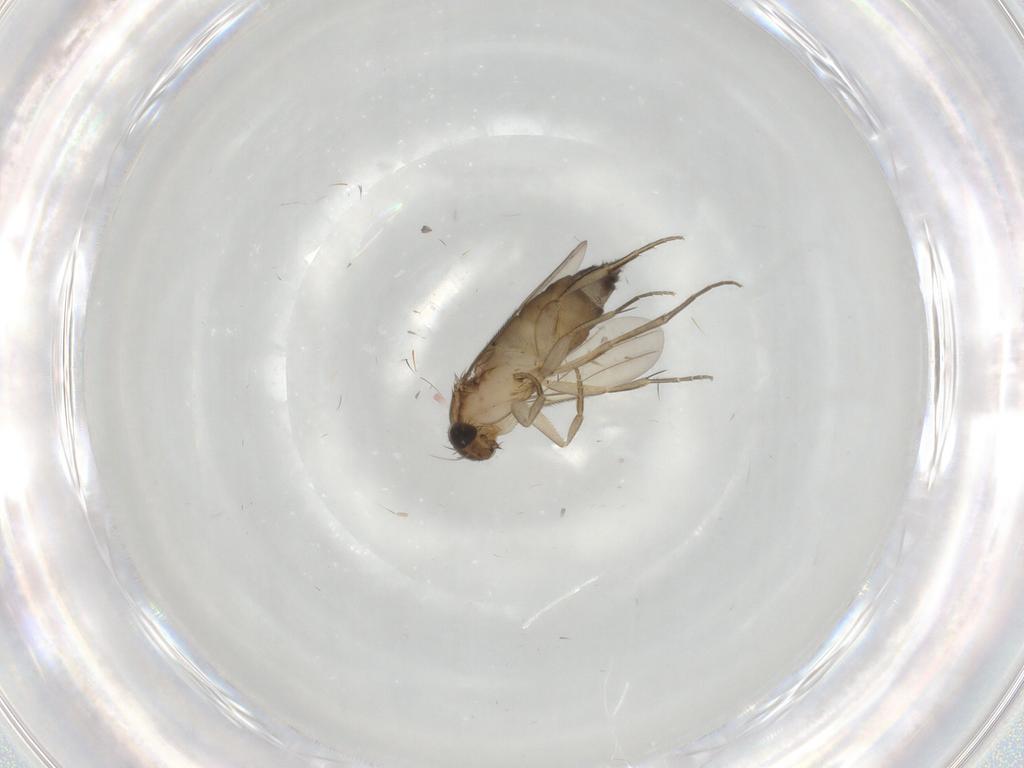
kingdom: Animalia
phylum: Arthropoda
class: Insecta
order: Diptera
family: Phoridae
